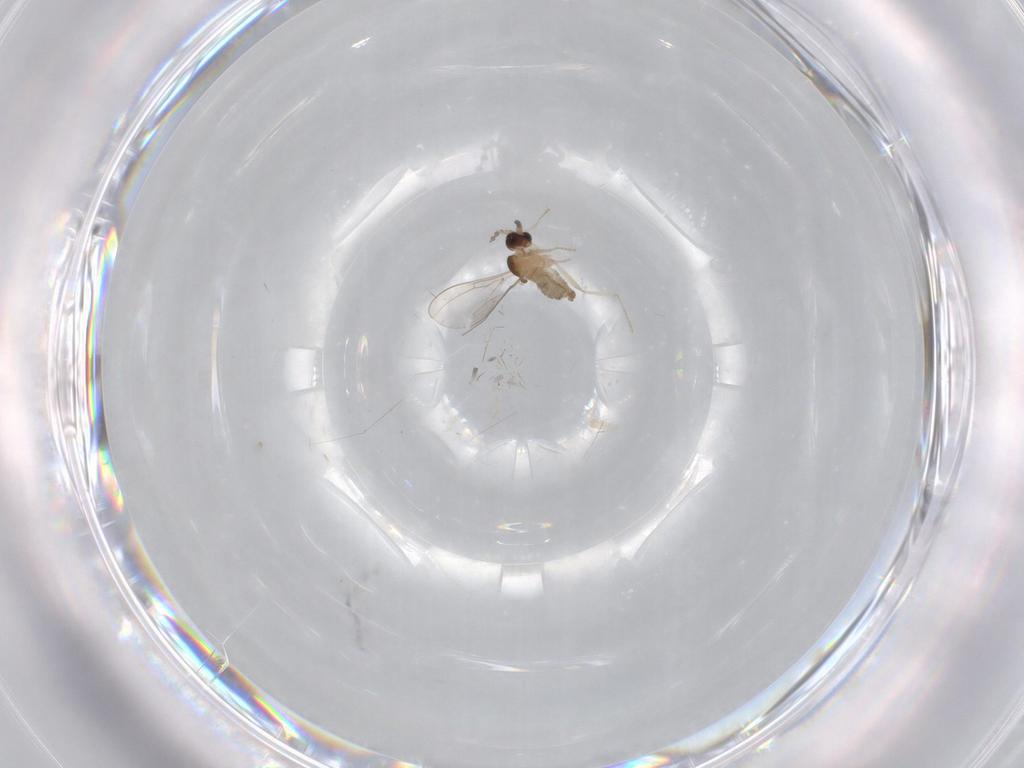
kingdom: Animalia
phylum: Arthropoda
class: Insecta
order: Diptera
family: Cecidomyiidae
